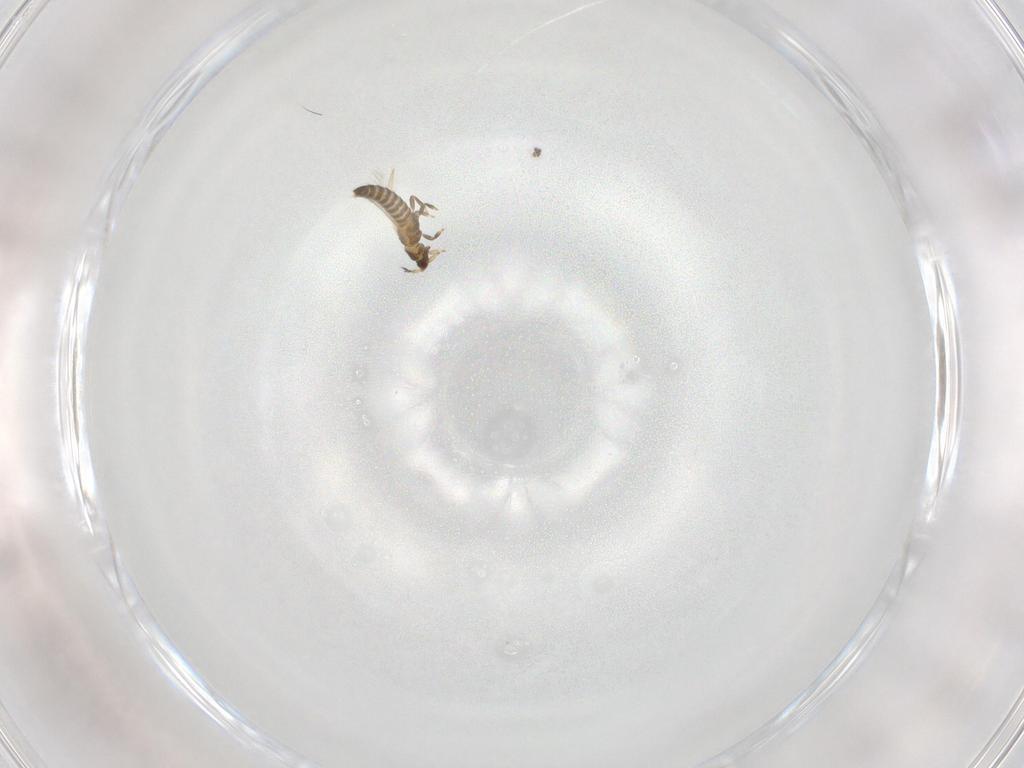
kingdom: Animalia
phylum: Arthropoda
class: Insecta
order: Thysanoptera
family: Thripidae
